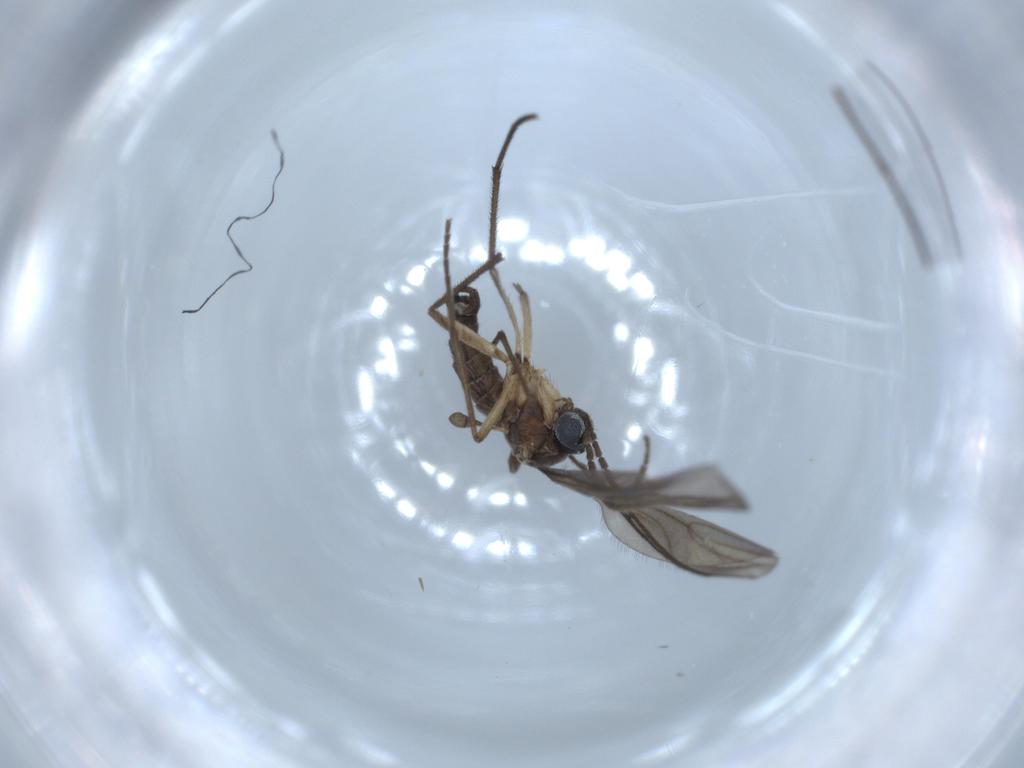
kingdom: Animalia
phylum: Arthropoda
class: Insecta
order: Diptera
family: Sciaridae
